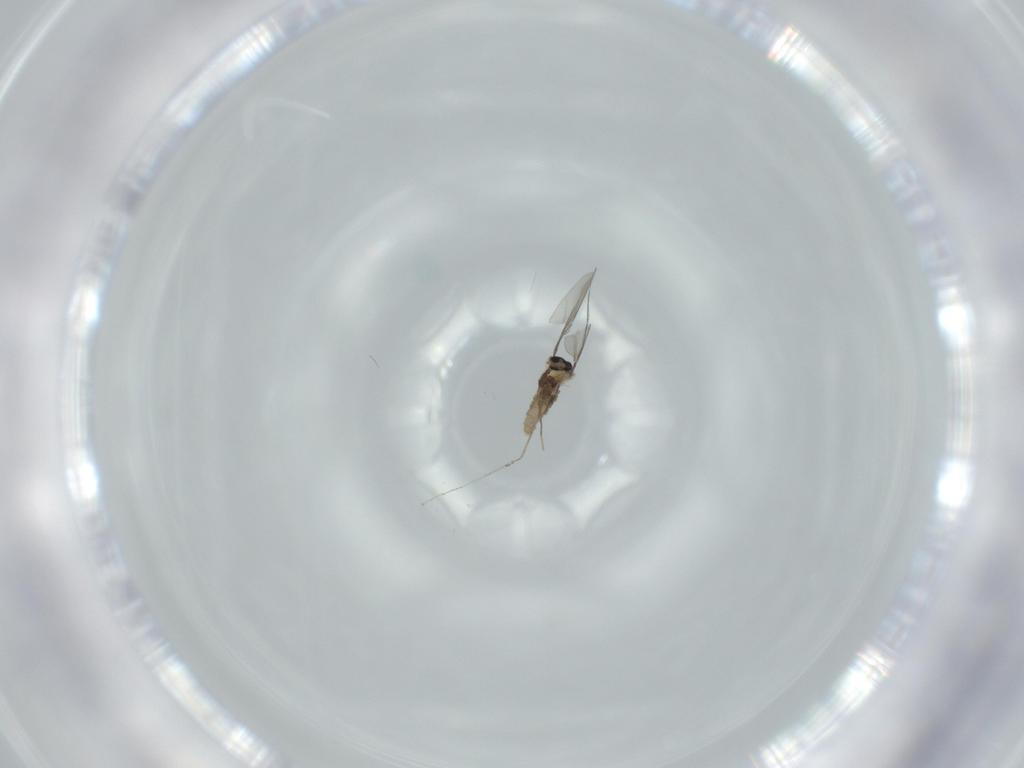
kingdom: Animalia
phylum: Arthropoda
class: Insecta
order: Diptera
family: Cecidomyiidae
